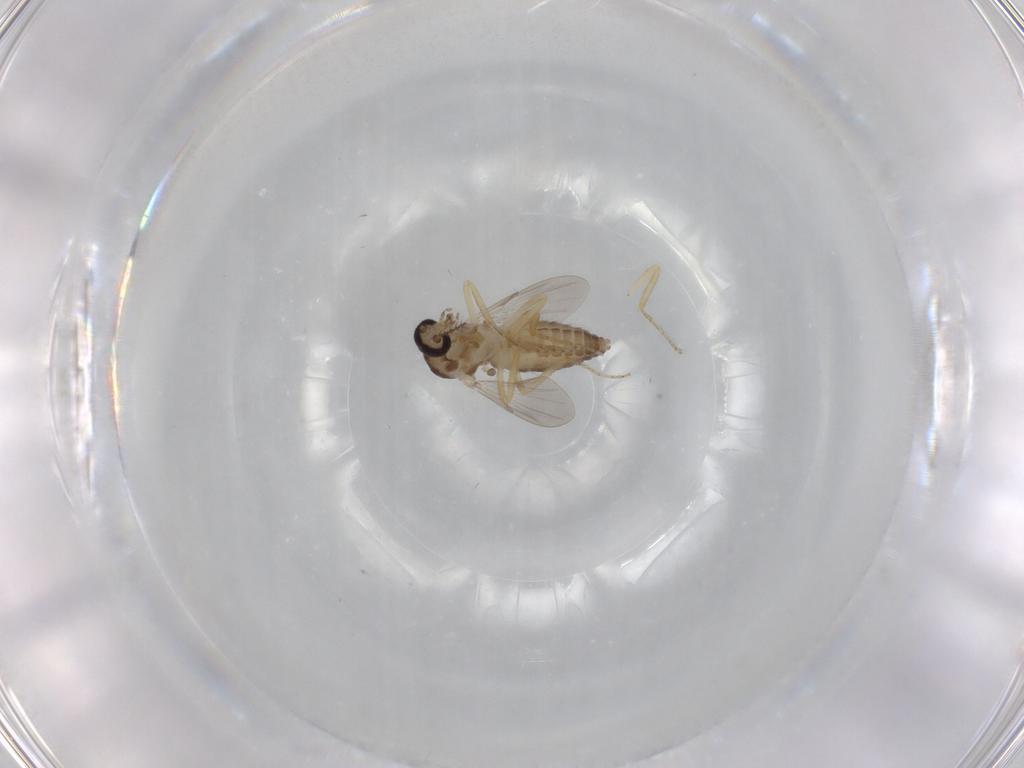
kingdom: Animalia
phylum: Arthropoda
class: Insecta
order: Diptera
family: Ceratopogonidae
